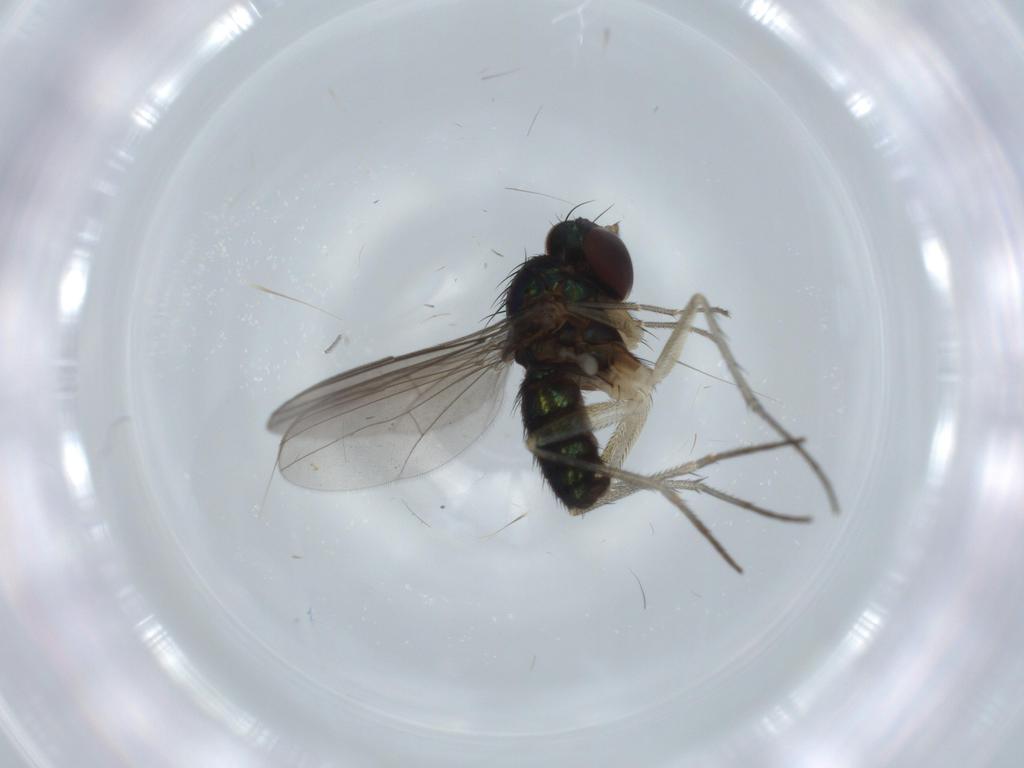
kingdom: Animalia
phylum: Arthropoda
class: Insecta
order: Diptera
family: Dolichopodidae
